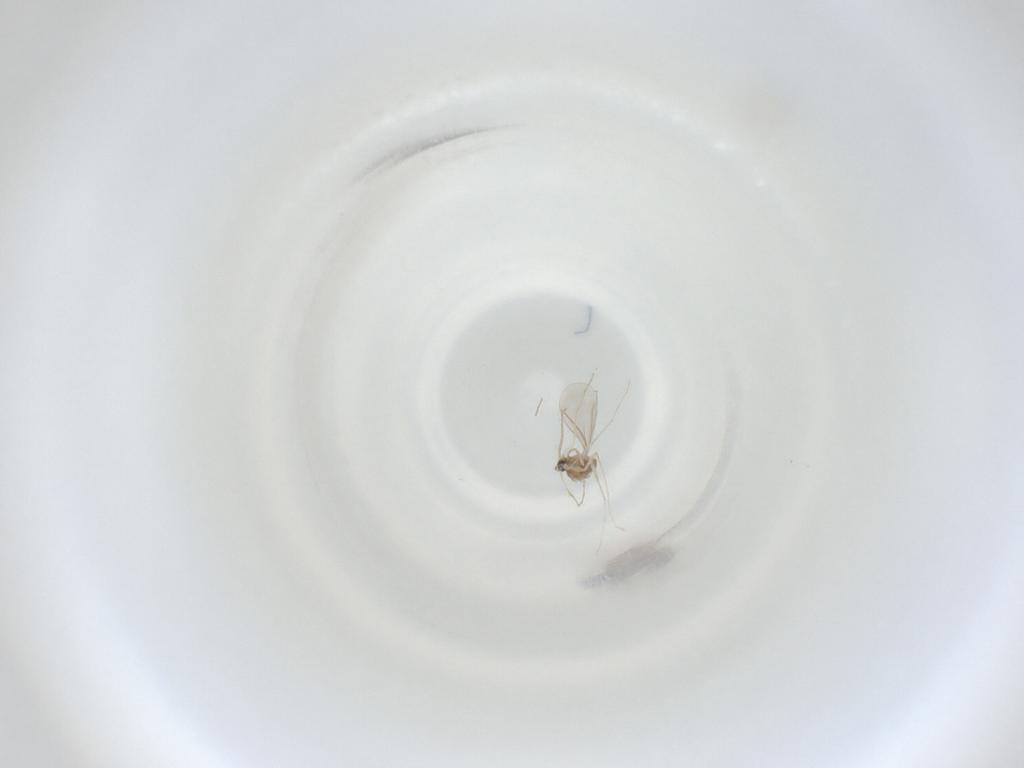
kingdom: Animalia
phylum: Arthropoda
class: Insecta
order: Diptera
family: Cecidomyiidae
